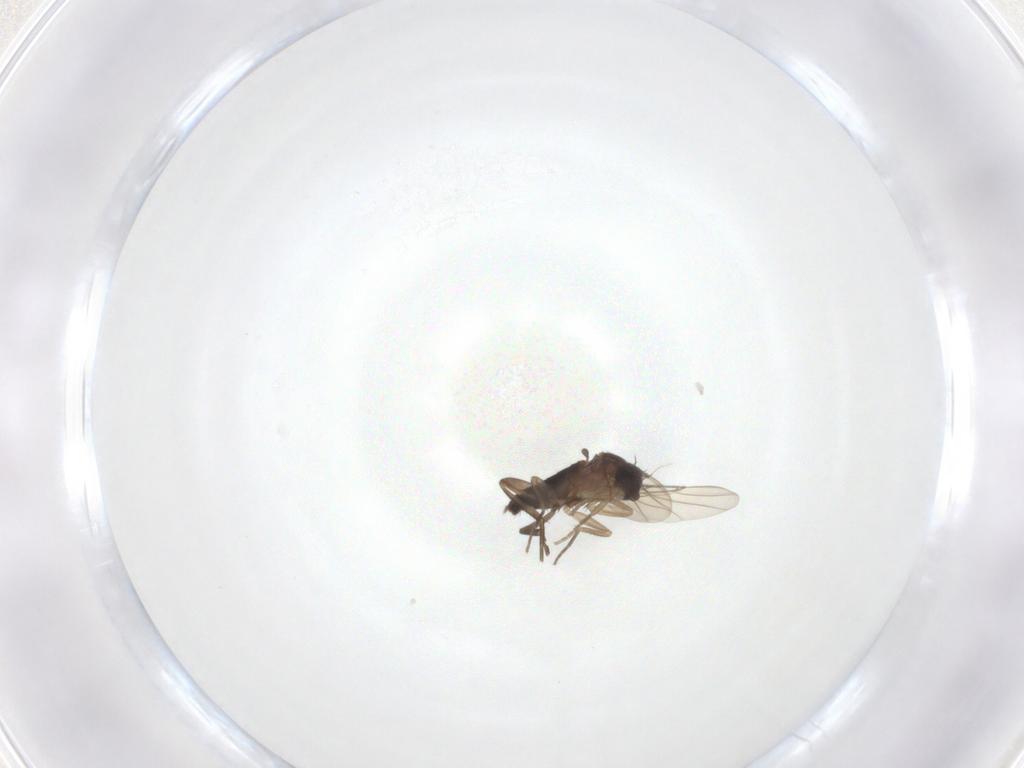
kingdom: Animalia
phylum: Arthropoda
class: Insecta
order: Diptera
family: Phoridae
